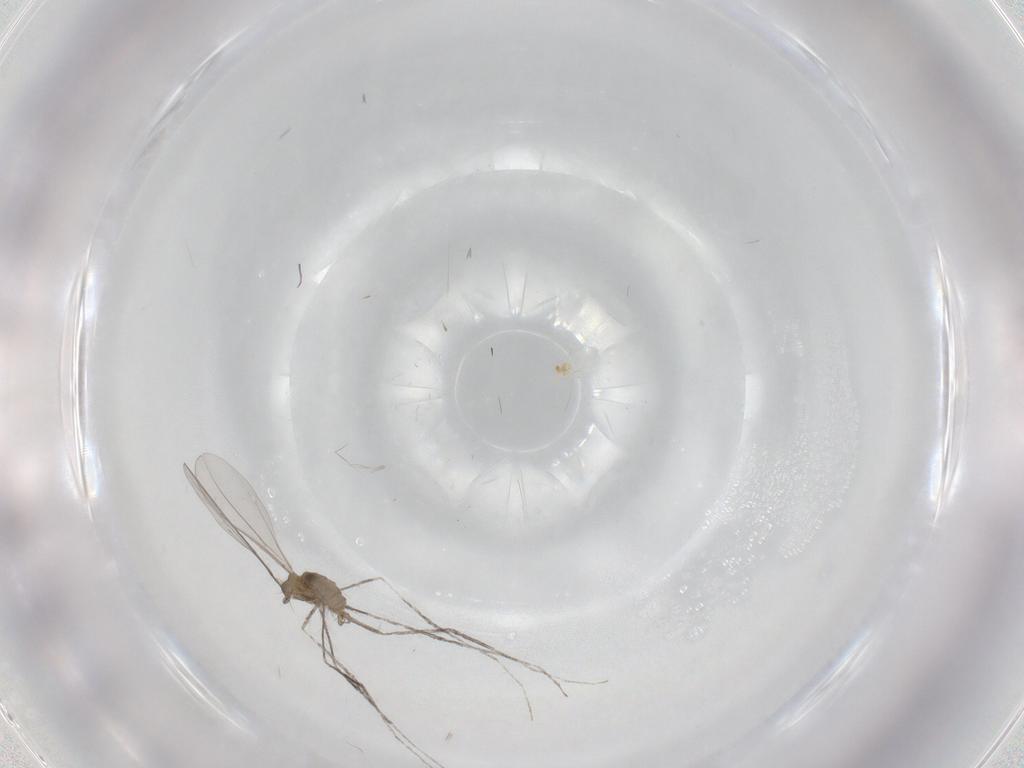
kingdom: Animalia
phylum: Arthropoda
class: Insecta
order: Diptera
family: Cecidomyiidae
